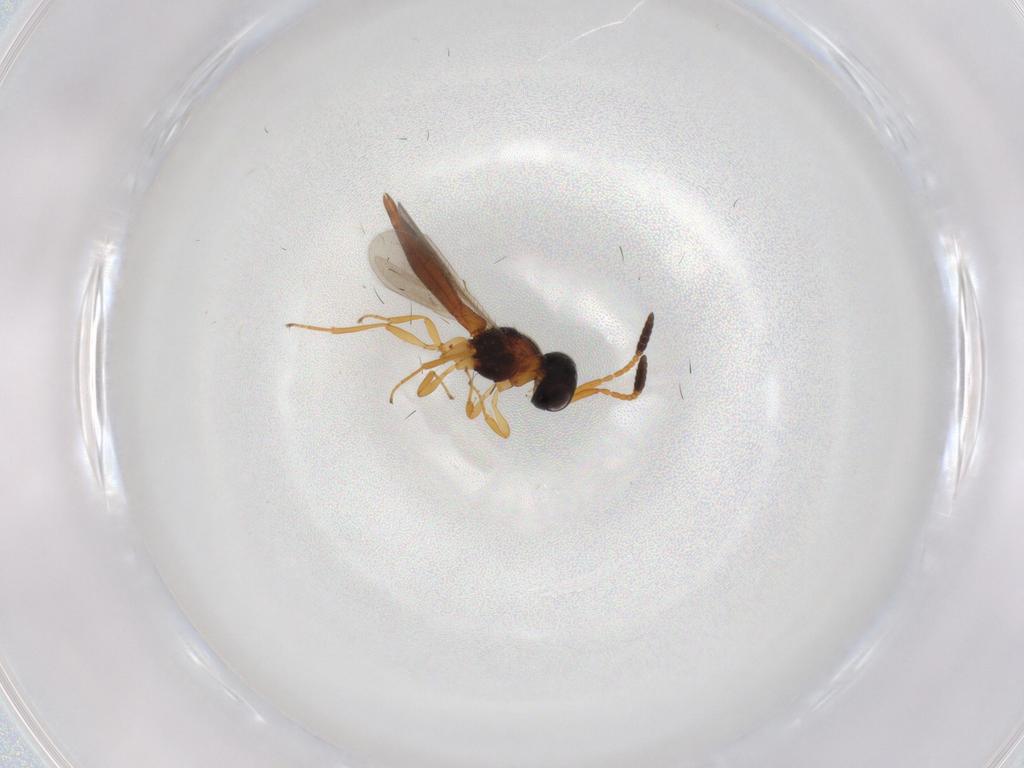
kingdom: Animalia
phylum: Arthropoda
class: Insecta
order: Hymenoptera
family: Scelionidae
